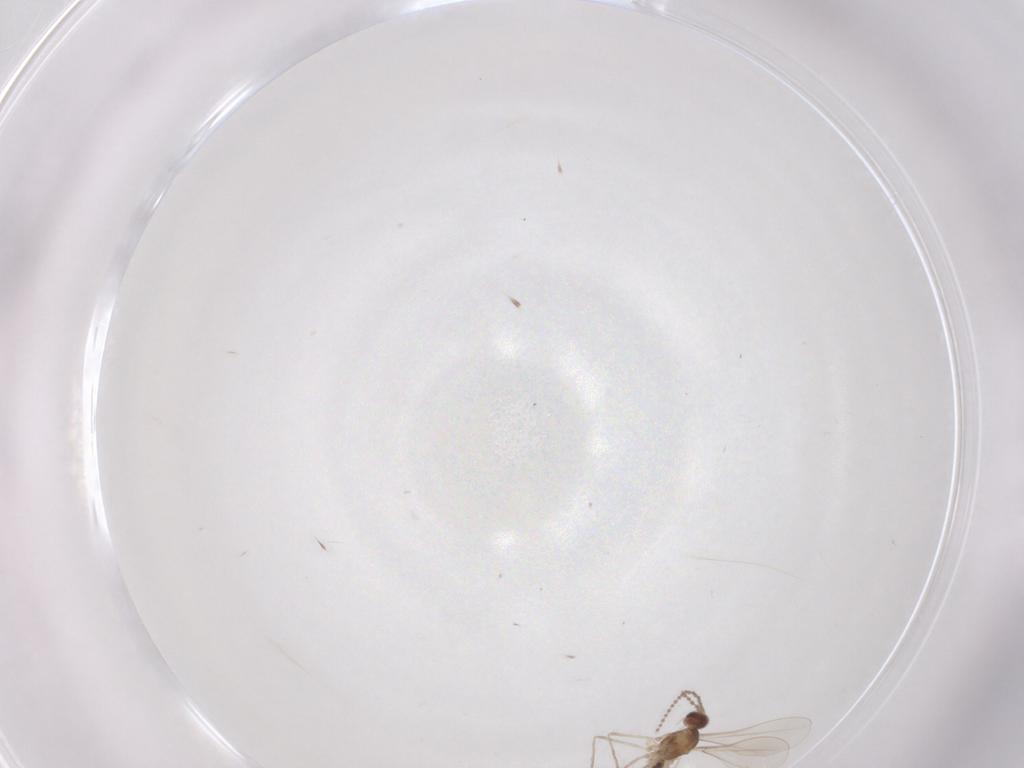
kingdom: Animalia
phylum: Arthropoda
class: Insecta
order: Diptera
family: Cecidomyiidae
